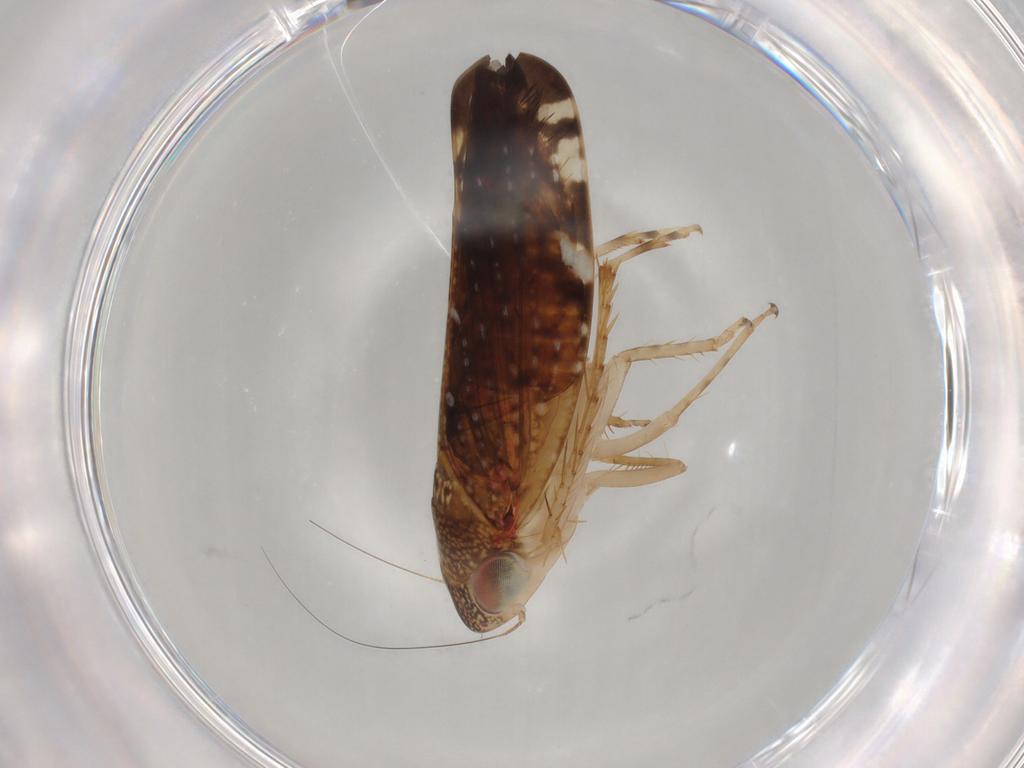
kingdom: Animalia
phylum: Arthropoda
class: Insecta
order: Hemiptera
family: Cicadellidae
